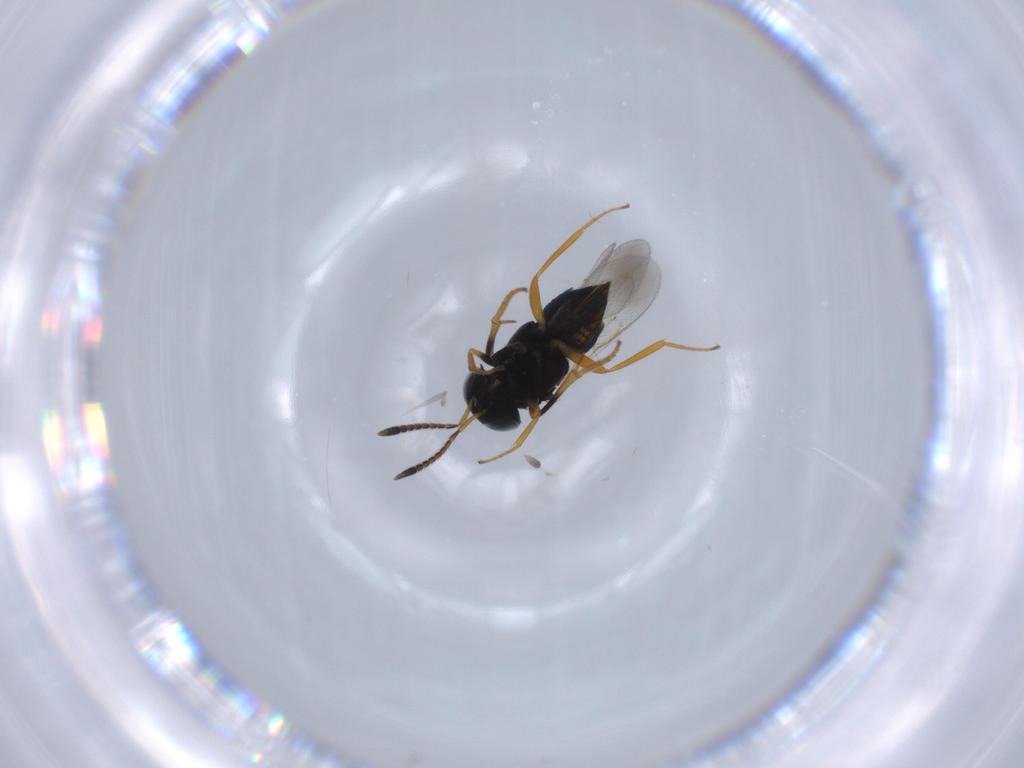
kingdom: Animalia
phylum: Arthropoda
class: Insecta
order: Hymenoptera
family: Encyrtidae
